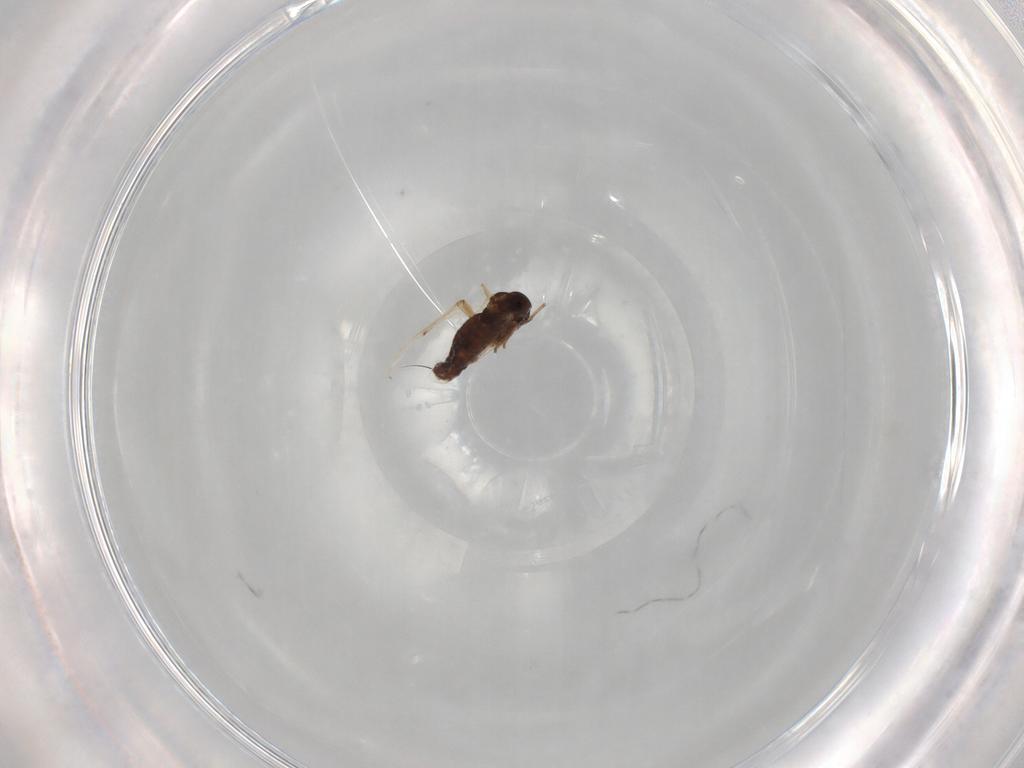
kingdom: Animalia
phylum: Arthropoda
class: Insecta
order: Diptera
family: Chironomidae
